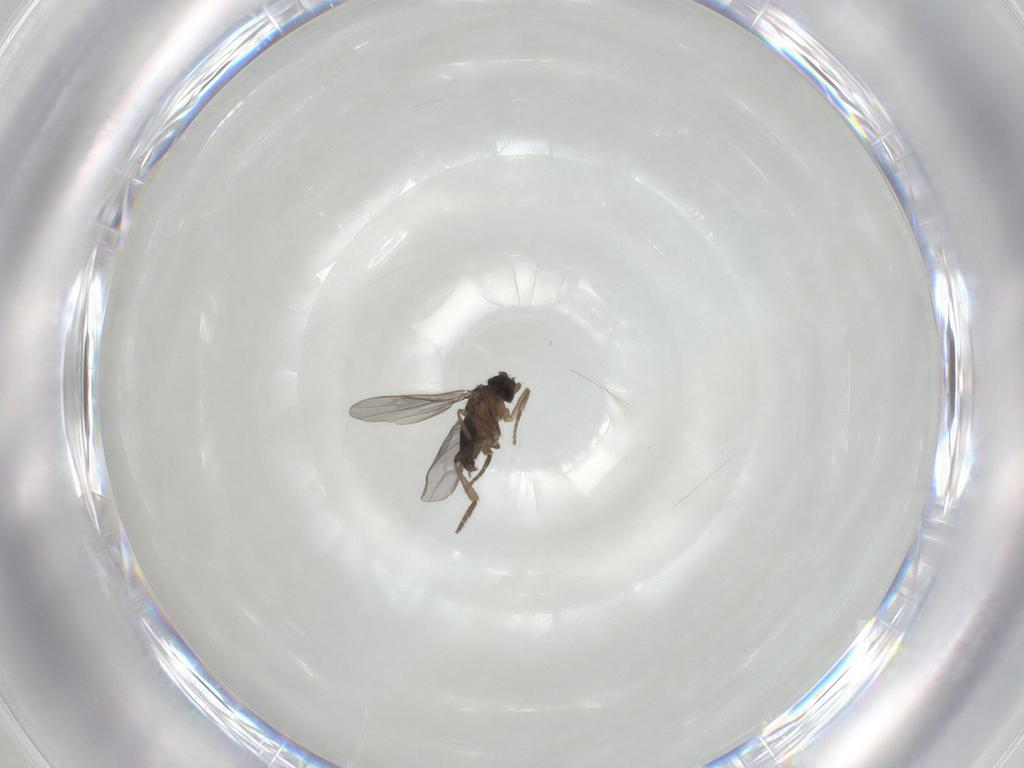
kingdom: Animalia
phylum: Arthropoda
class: Insecta
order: Diptera
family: Phoridae
